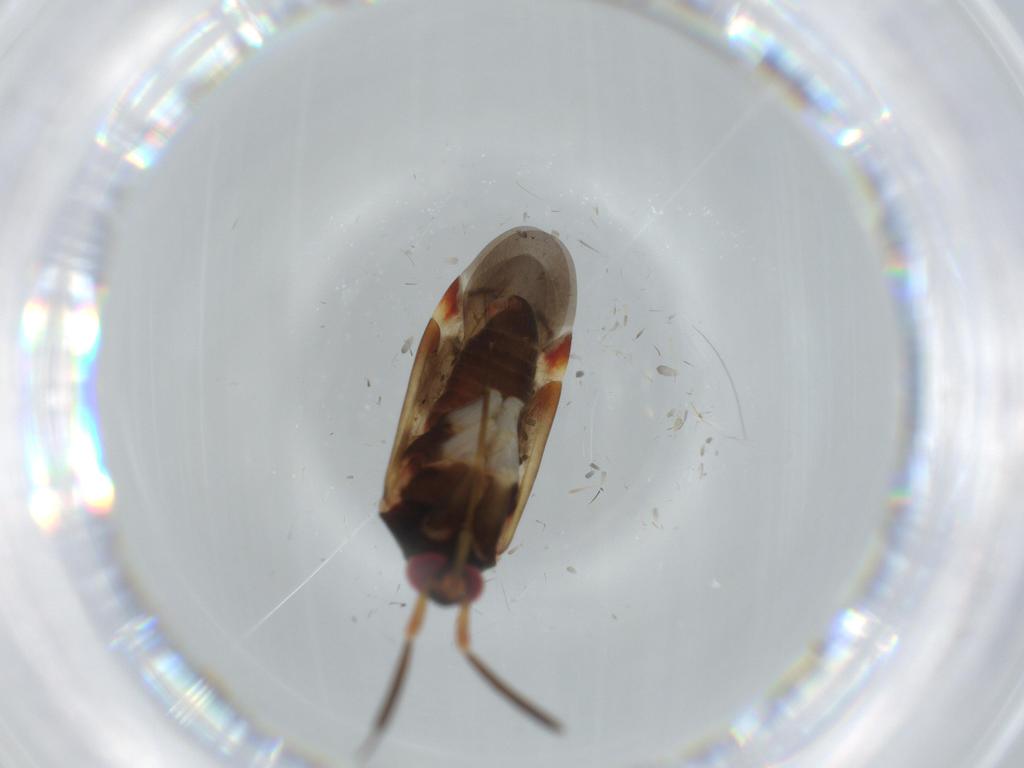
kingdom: Animalia
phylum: Arthropoda
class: Insecta
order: Hemiptera
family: Miridae
